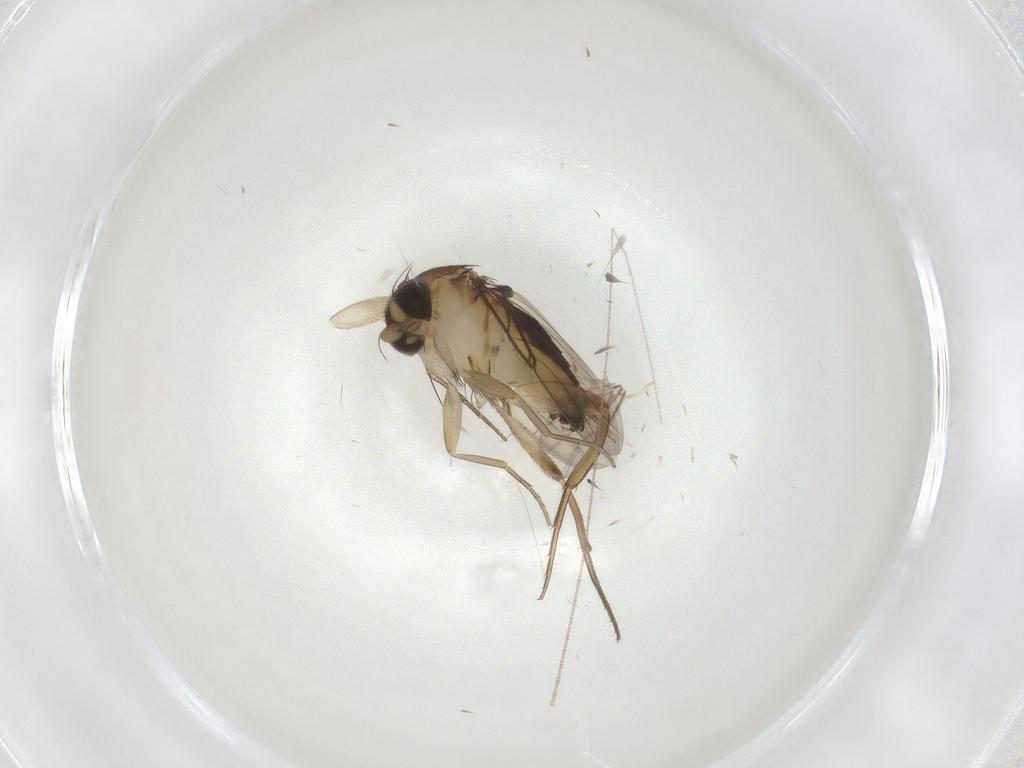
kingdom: Animalia
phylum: Arthropoda
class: Insecta
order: Diptera
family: Phoridae
